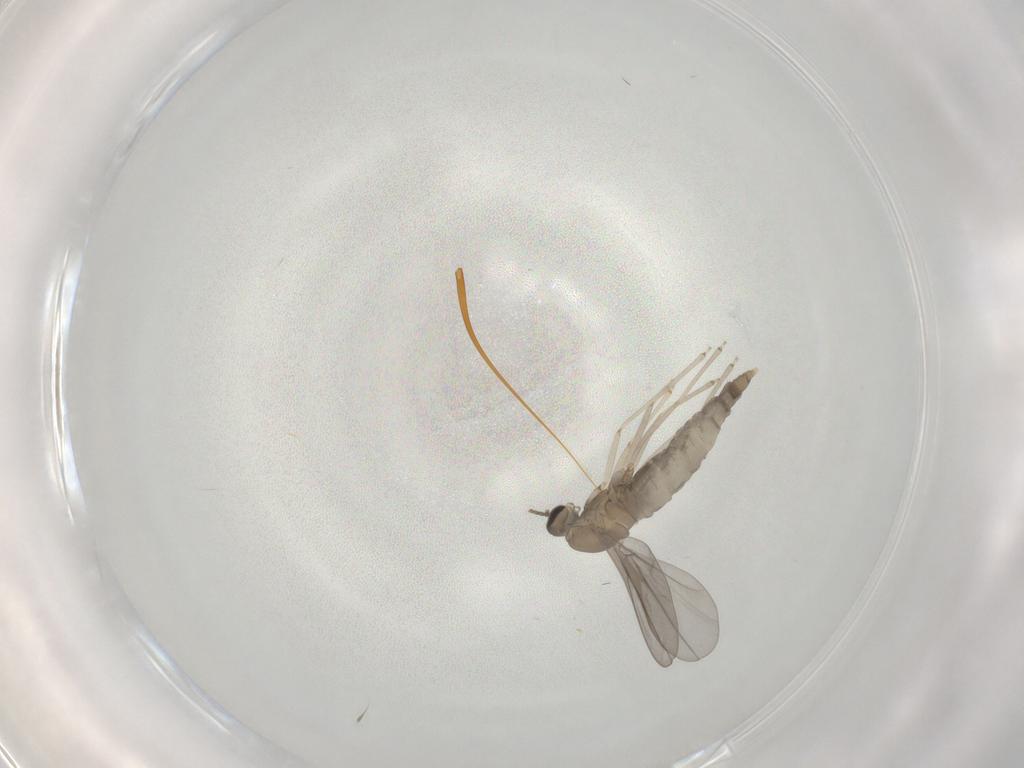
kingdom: Animalia
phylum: Arthropoda
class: Insecta
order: Diptera
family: Cecidomyiidae
